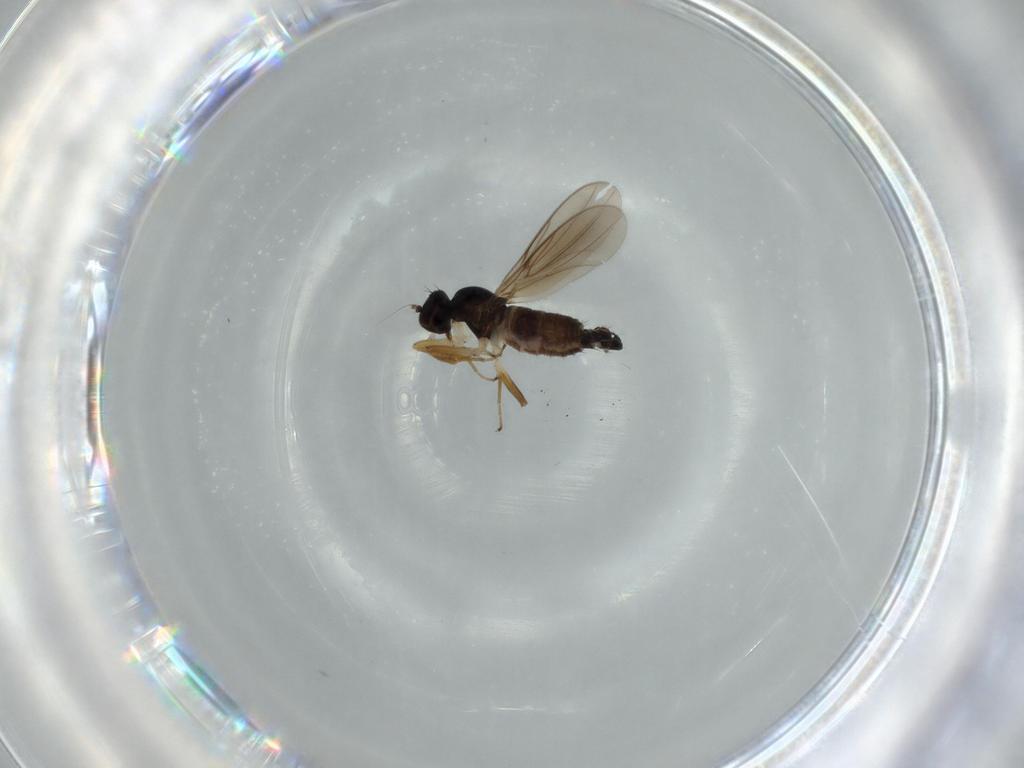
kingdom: Animalia
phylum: Arthropoda
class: Insecta
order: Diptera
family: Hybotidae
